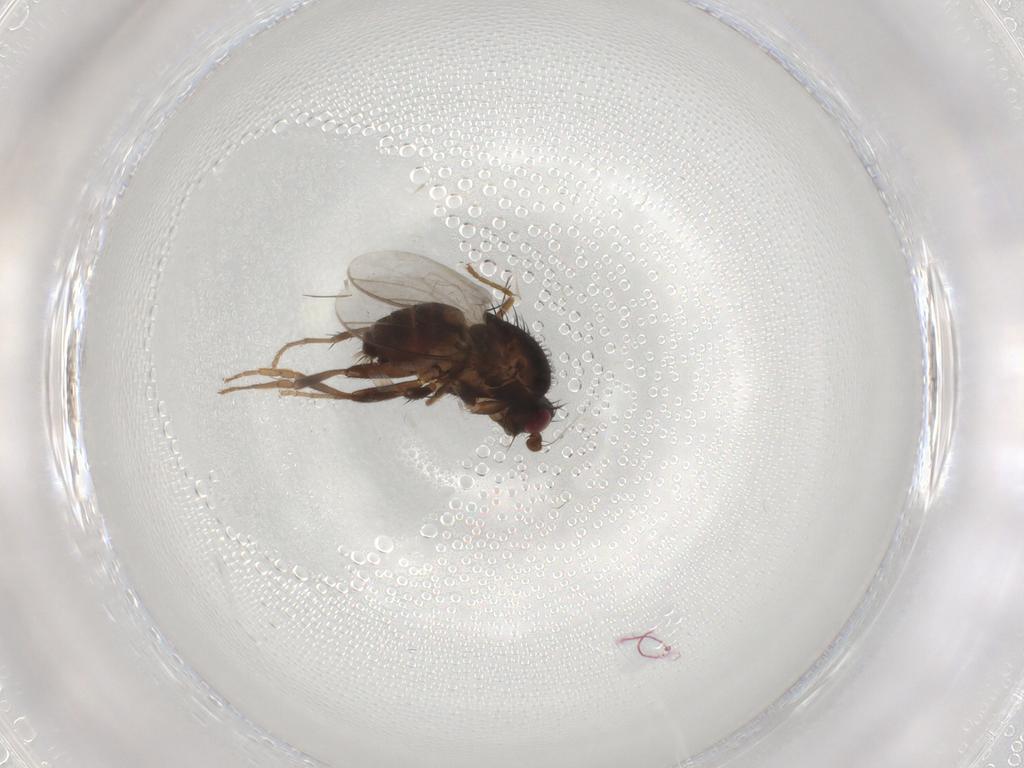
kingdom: Animalia
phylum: Arthropoda
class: Insecta
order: Diptera
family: Sphaeroceridae
